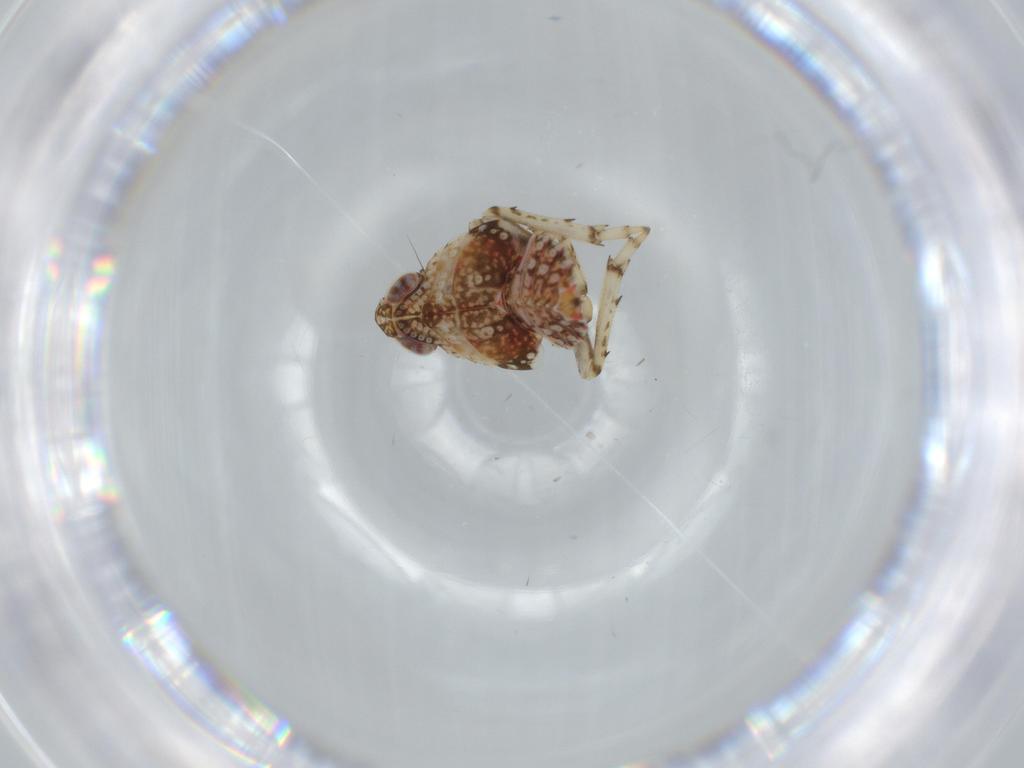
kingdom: Animalia
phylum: Arthropoda
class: Insecta
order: Hemiptera
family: Issidae
